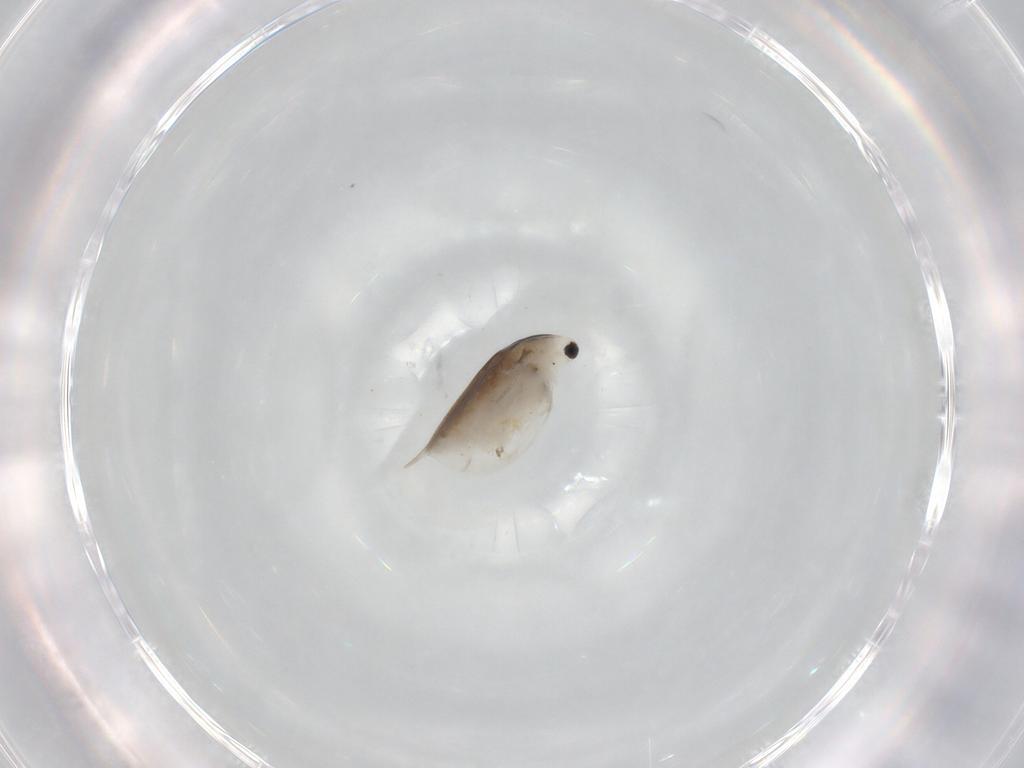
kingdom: Animalia
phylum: Arthropoda
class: Branchiopoda
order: Diplostraca
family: Daphniidae
